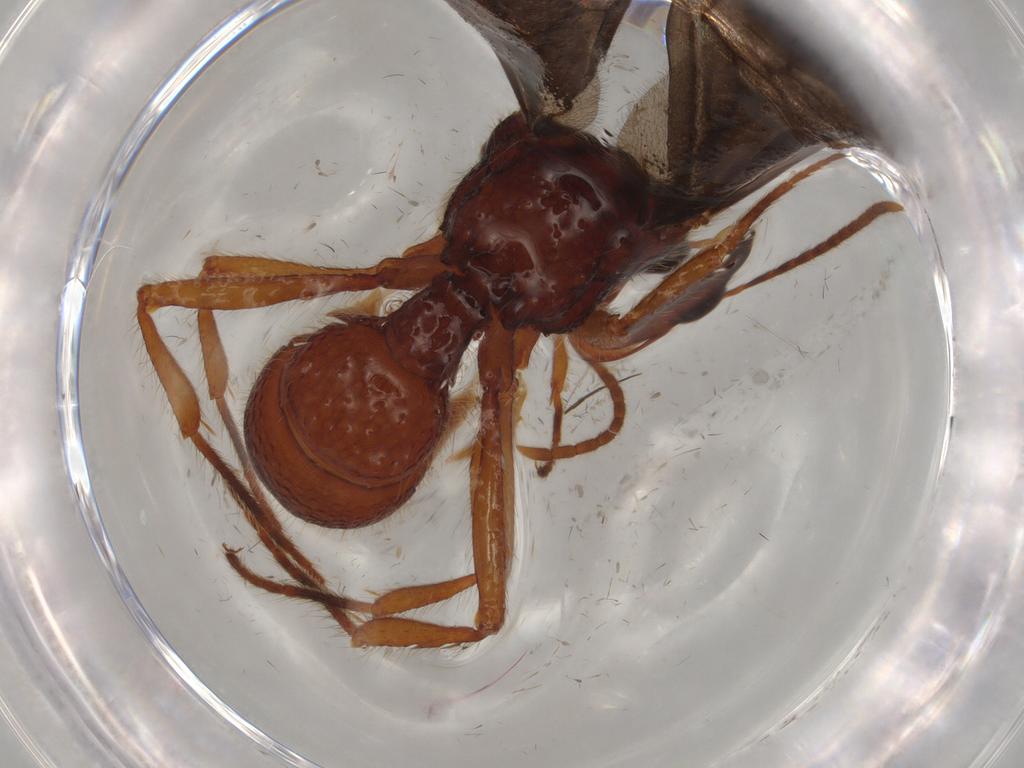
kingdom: Animalia
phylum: Arthropoda
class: Insecta
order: Hymenoptera
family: Formicidae
